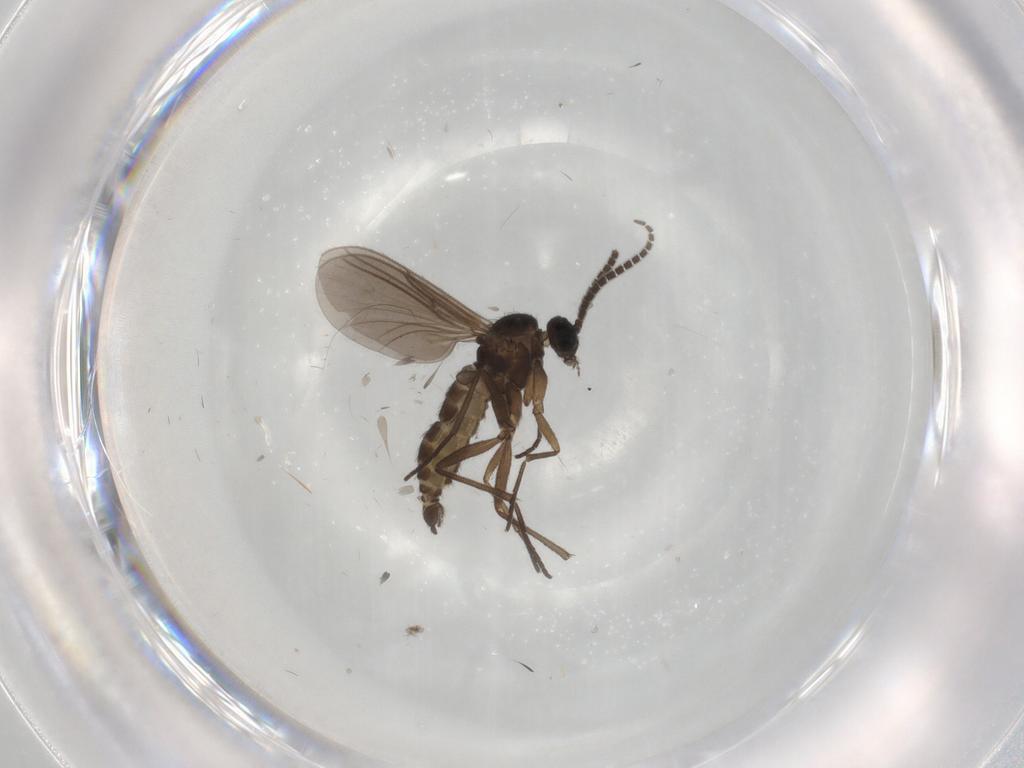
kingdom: Animalia
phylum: Arthropoda
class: Insecta
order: Diptera
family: Sciaridae
